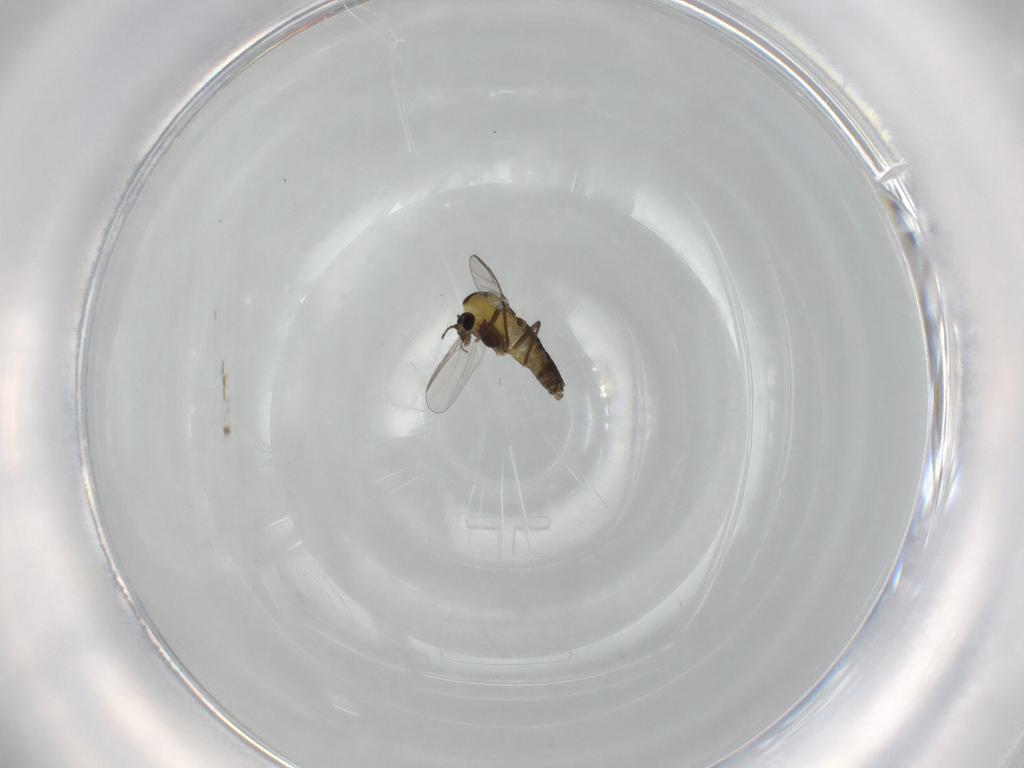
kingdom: Animalia
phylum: Arthropoda
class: Insecta
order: Diptera
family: Chironomidae
